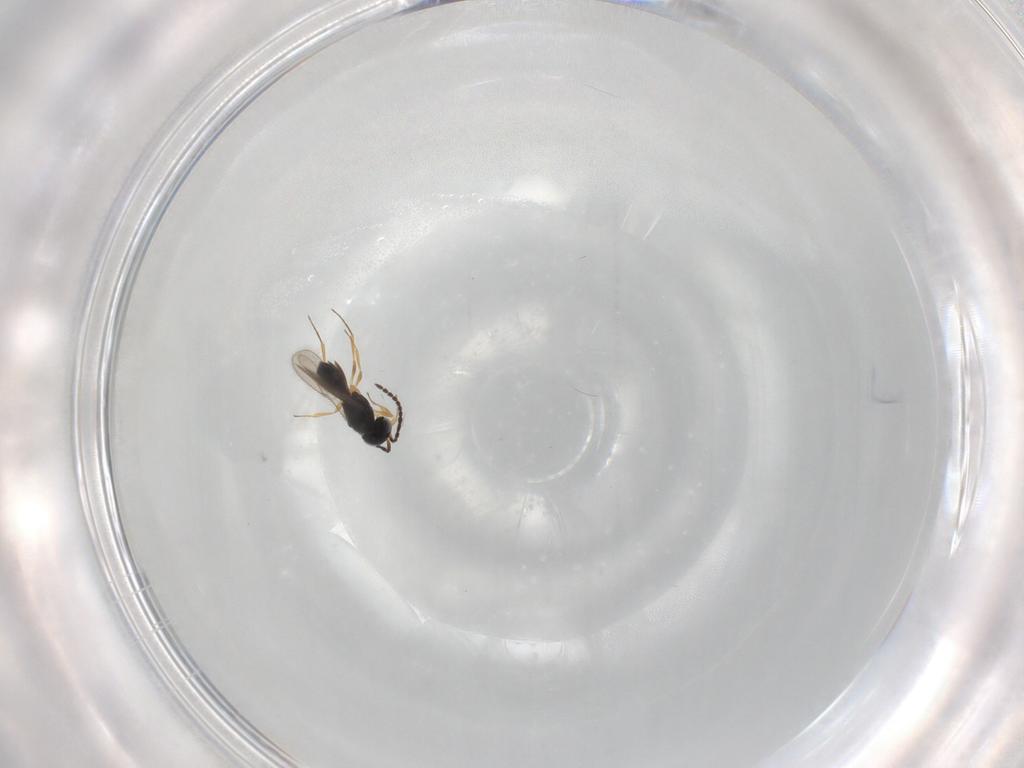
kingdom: Animalia
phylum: Arthropoda
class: Insecta
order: Hymenoptera
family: Scelionidae
